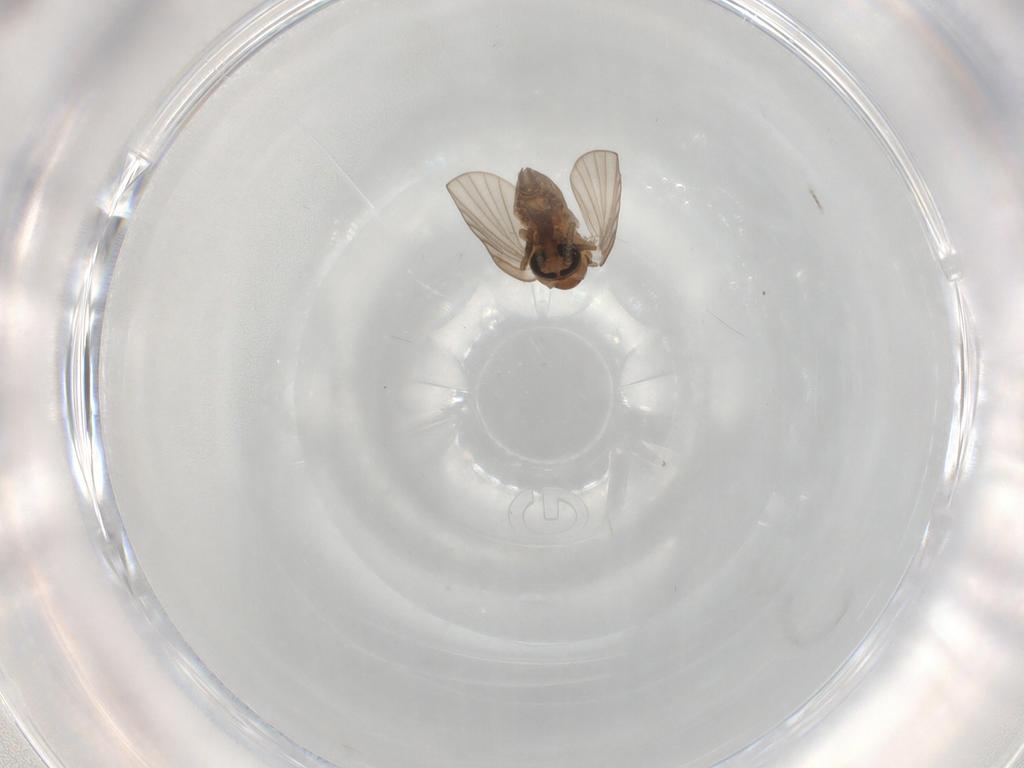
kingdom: Animalia
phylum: Arthropoda
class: Insecta
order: Diptera
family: Psychodidae
